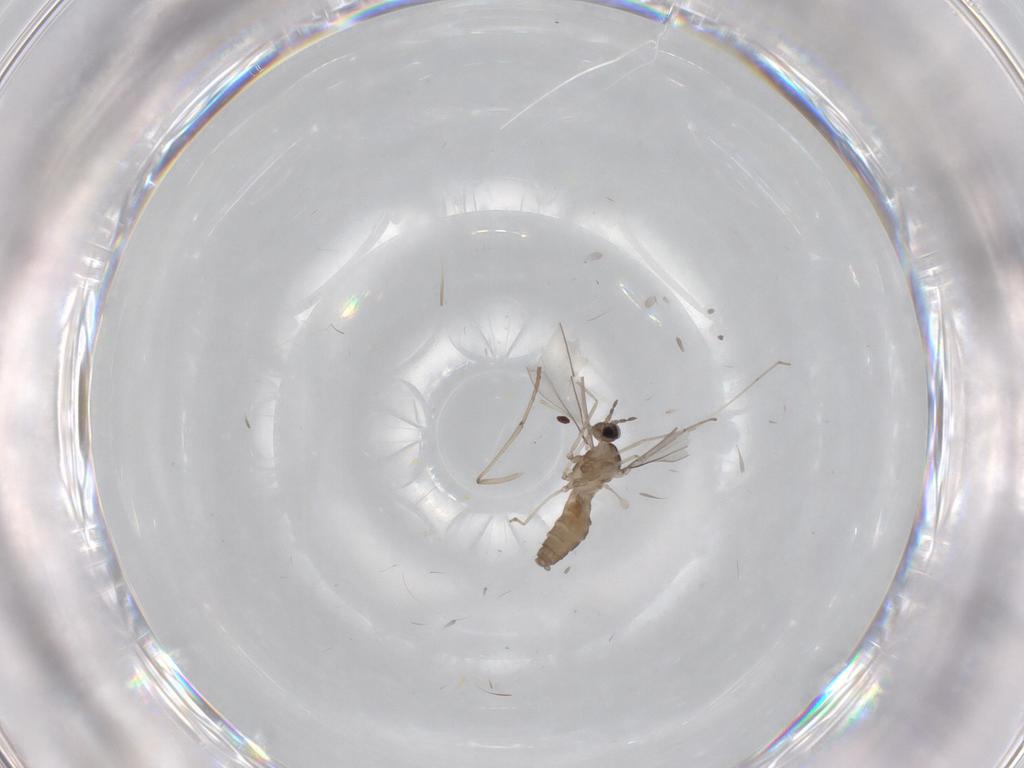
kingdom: Animalia
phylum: Arthropoda
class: Insecta
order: Diptera
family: Psychodidae
